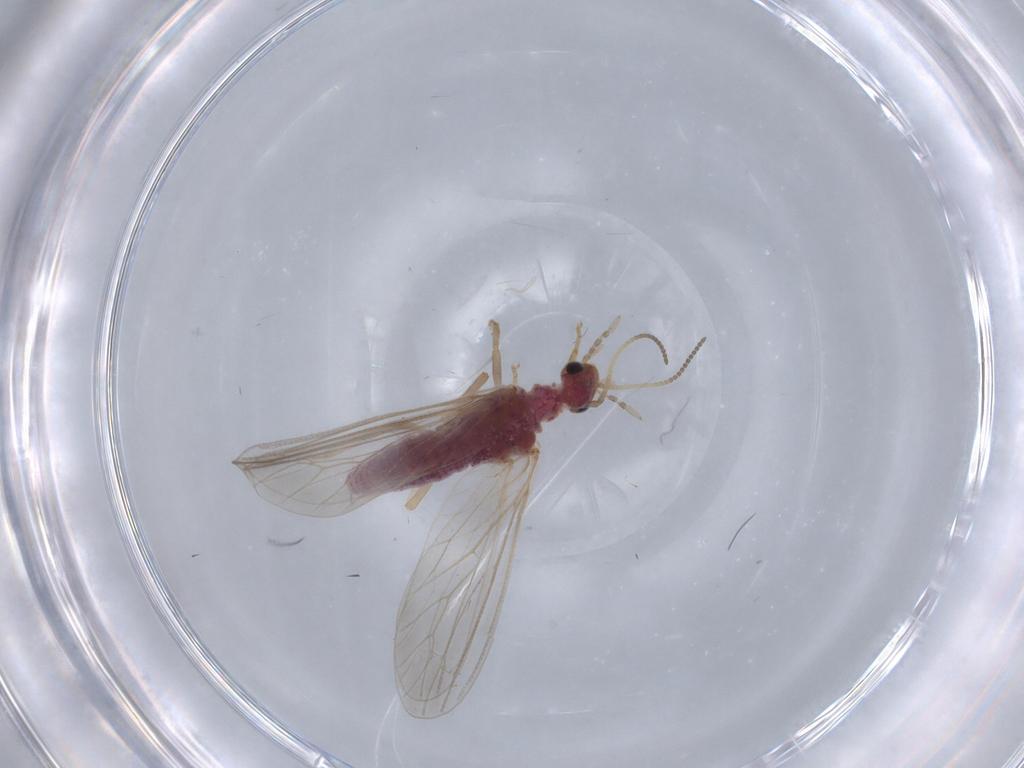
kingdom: Animalia
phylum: Arthropoda
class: Insecta
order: Neuroptera
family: Coniopterygidae
